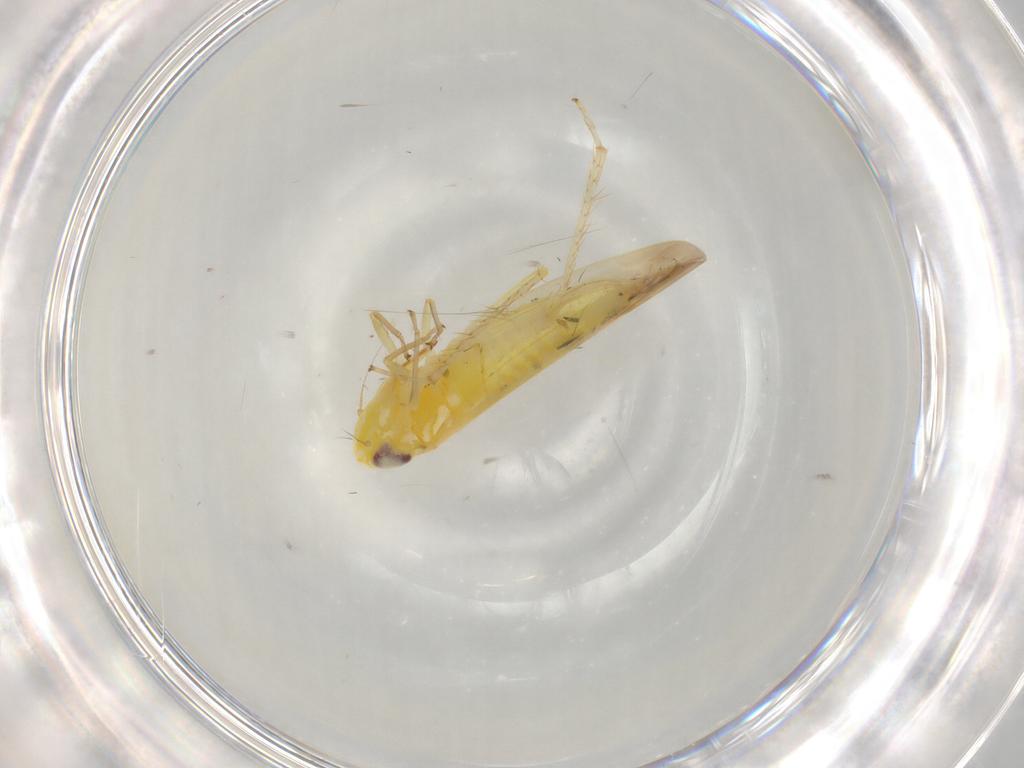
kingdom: Animalia
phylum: Arthropoda
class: Insecta
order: Hemiptera
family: Cicadellidae
